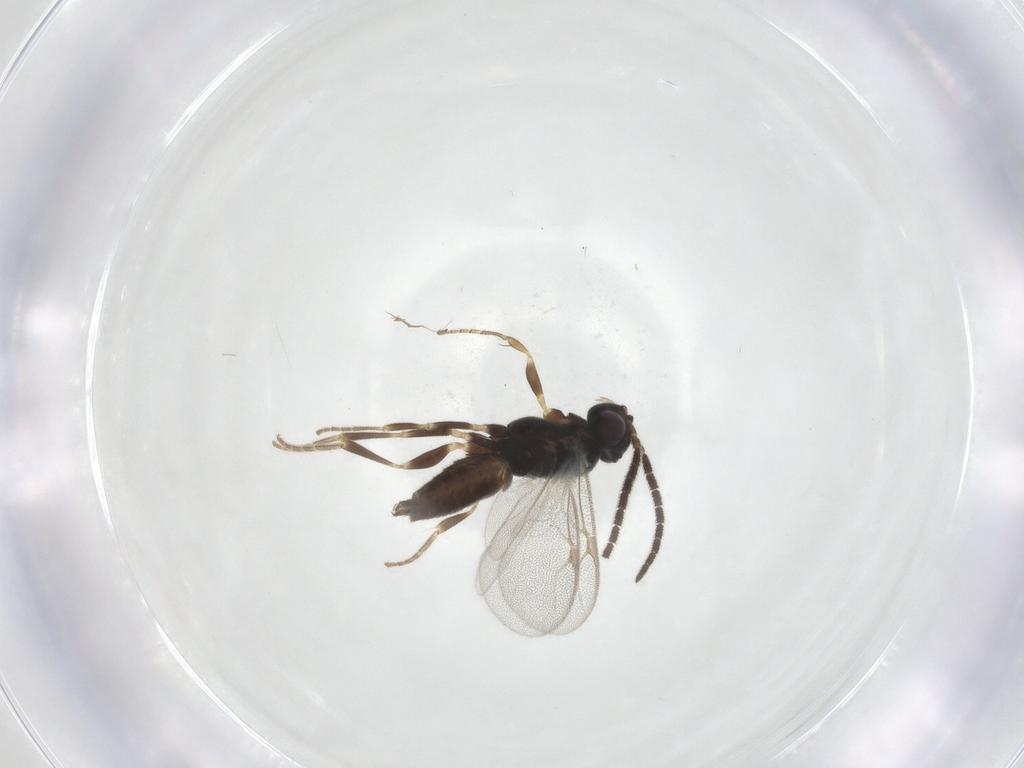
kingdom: Animalia
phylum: Arthropoda
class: Insecta
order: Hymenoptera
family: Dryinidae
